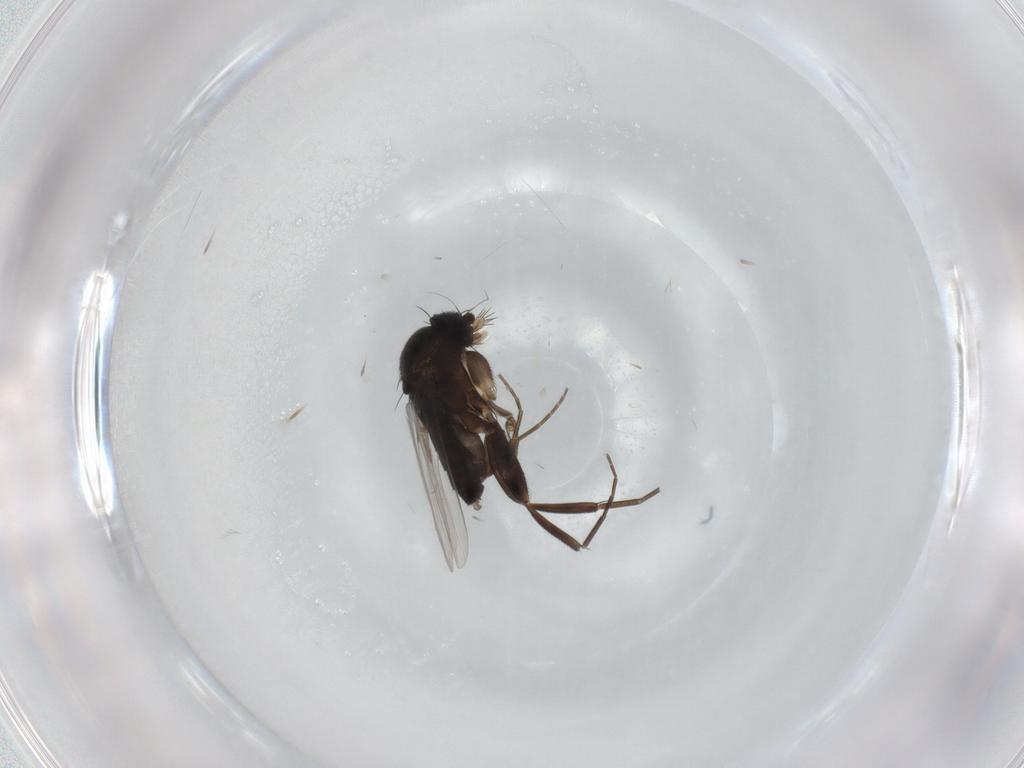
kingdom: Animalia
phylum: Arthropoda
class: Insecta
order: Diptera
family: Phoridae
